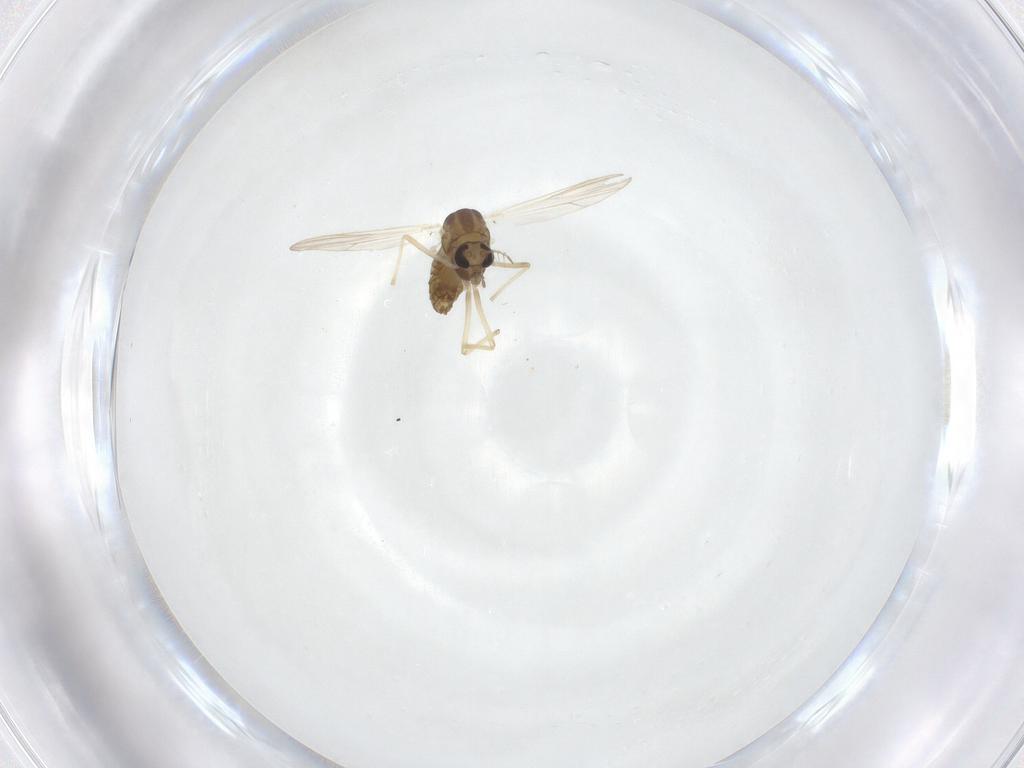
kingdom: Animalia
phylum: Arthropoda
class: Insecta
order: Diptera
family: Chironomidae
